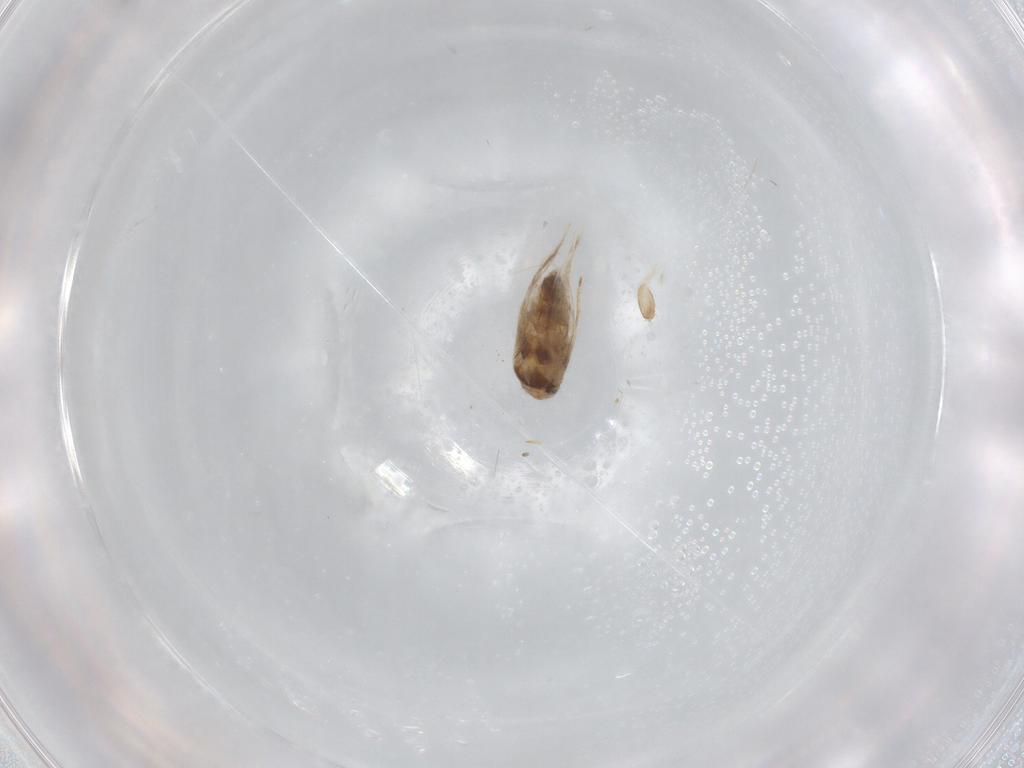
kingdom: Animalia
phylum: Arthropoda
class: Insecta
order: Lepidoptera
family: Nymphalidae
